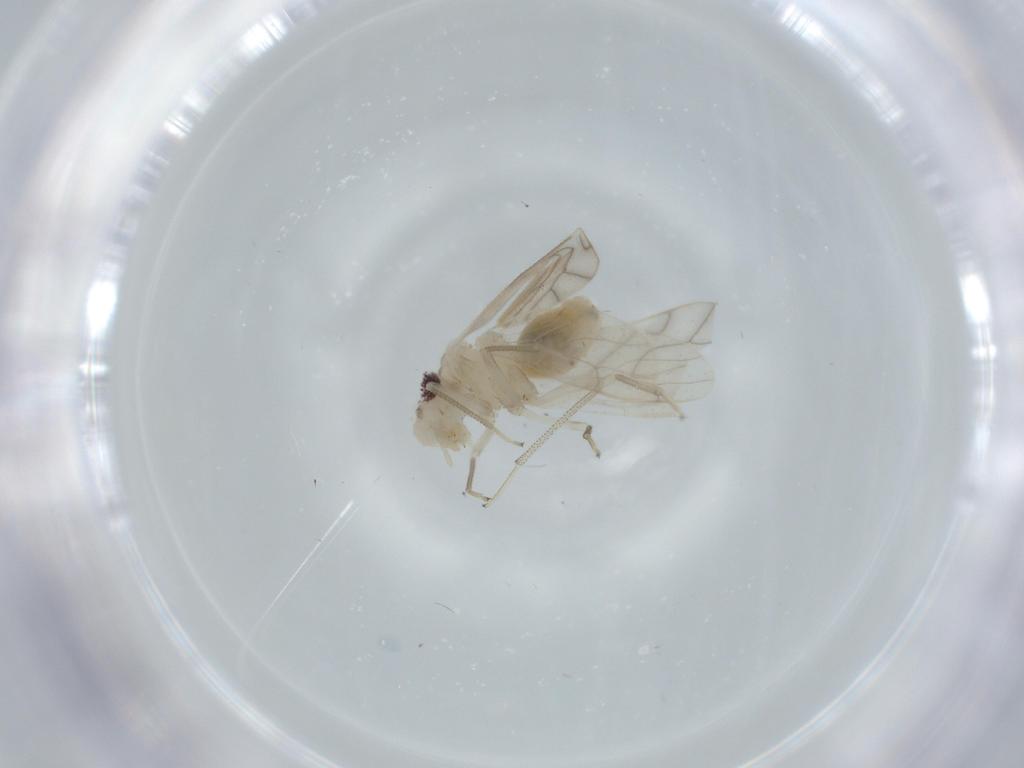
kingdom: Animalia
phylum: Arthropoda
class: Insecta
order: Psocodea
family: Caeciliusidae
